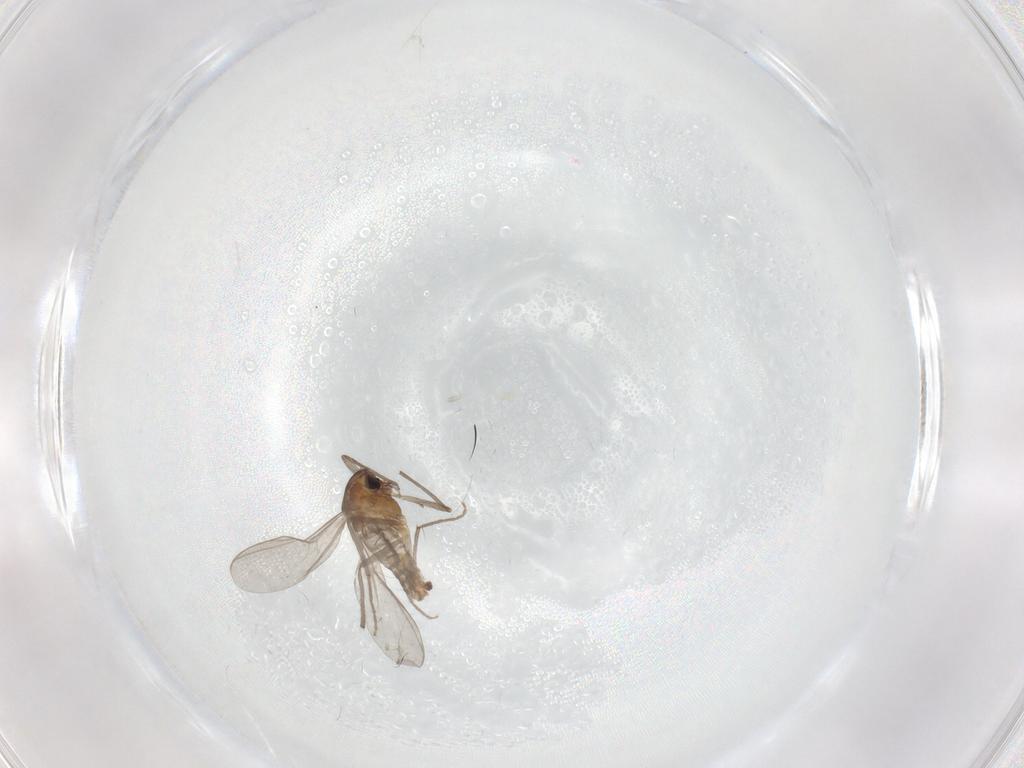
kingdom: Animalia
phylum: Arthropoda
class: Insecta
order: Diptera
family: Chironomidae
